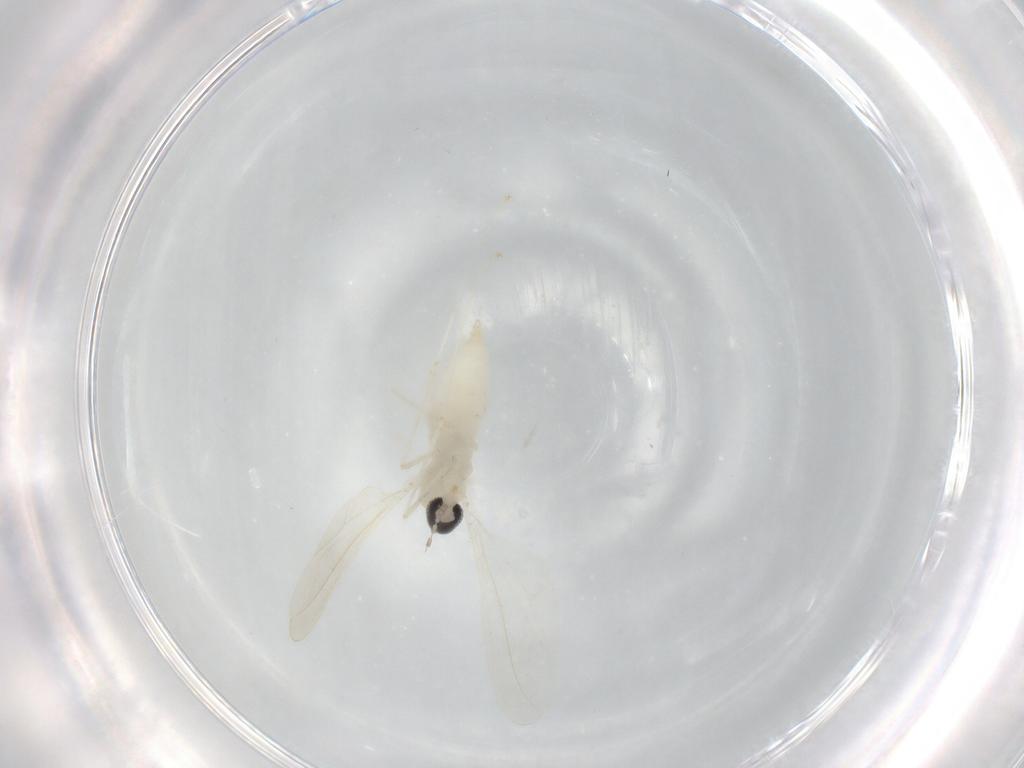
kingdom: Animalia
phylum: Arthropoda
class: Insecta
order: Diptera
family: Cecidomyiidae
